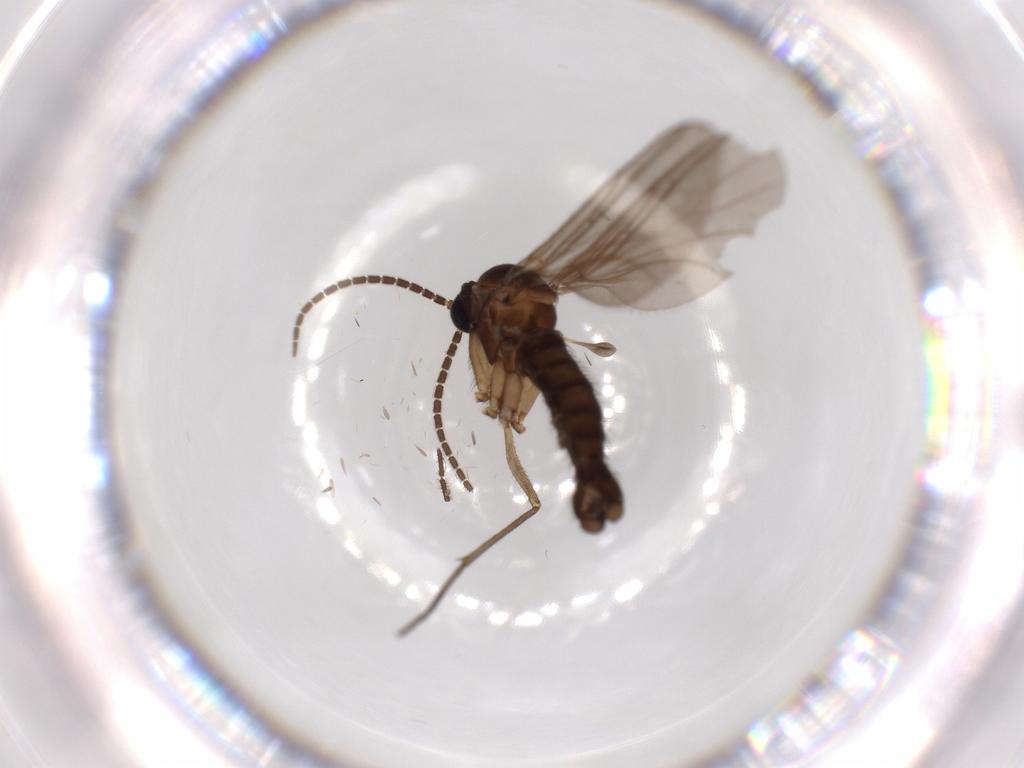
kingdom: Animalia
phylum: Arthropoda
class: Insecta
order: Diptera
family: Sciaridae
